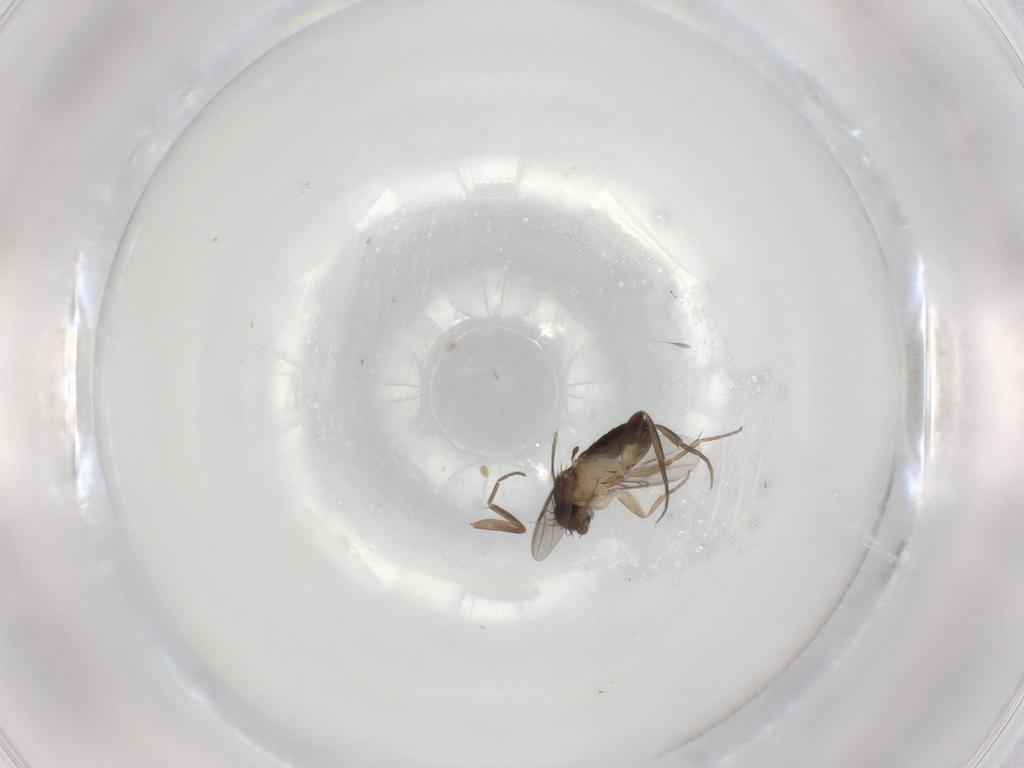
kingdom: Animalia
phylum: Arthropoda
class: Insecta
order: Diptera
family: Phoridae
